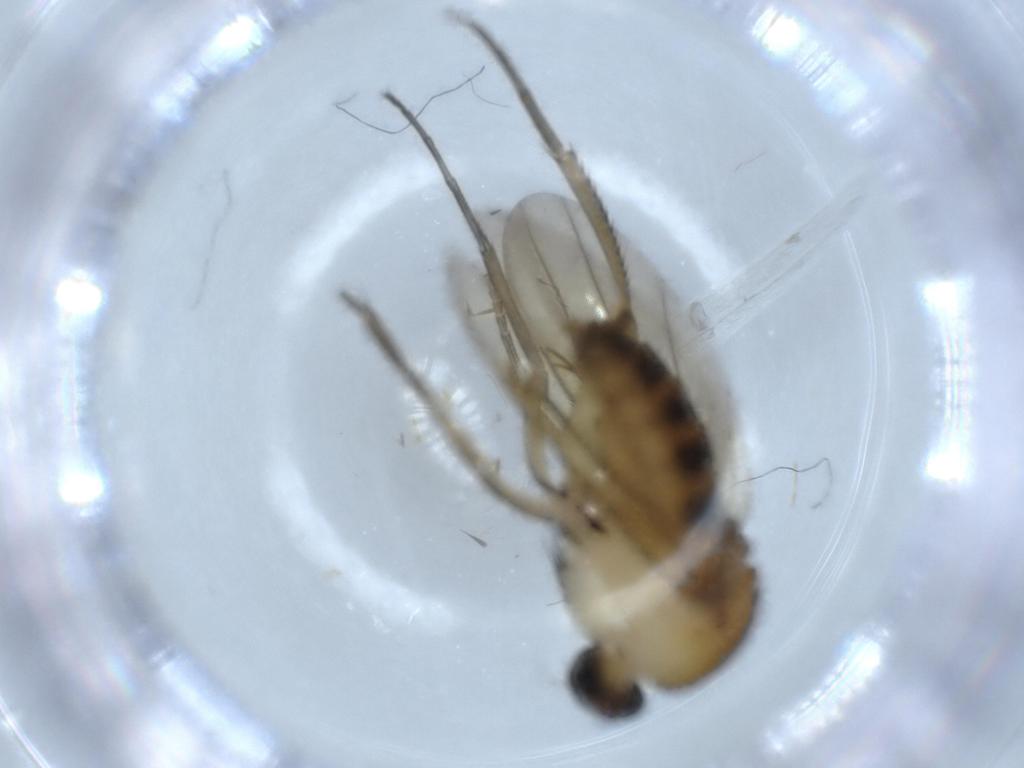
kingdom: Animalia
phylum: Arthropoda
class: Insecta
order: Diptera
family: Phoridae
